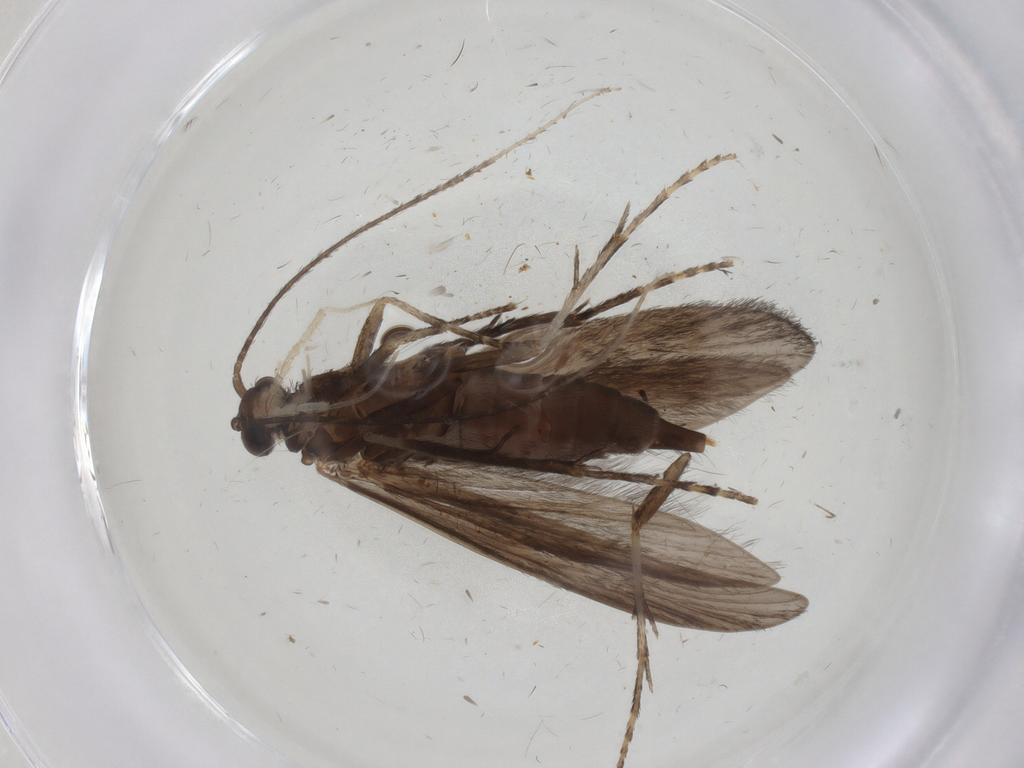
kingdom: Animalia
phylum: Arthropoda
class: Insecta
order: Trichoptera
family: Xiphocentronidae
